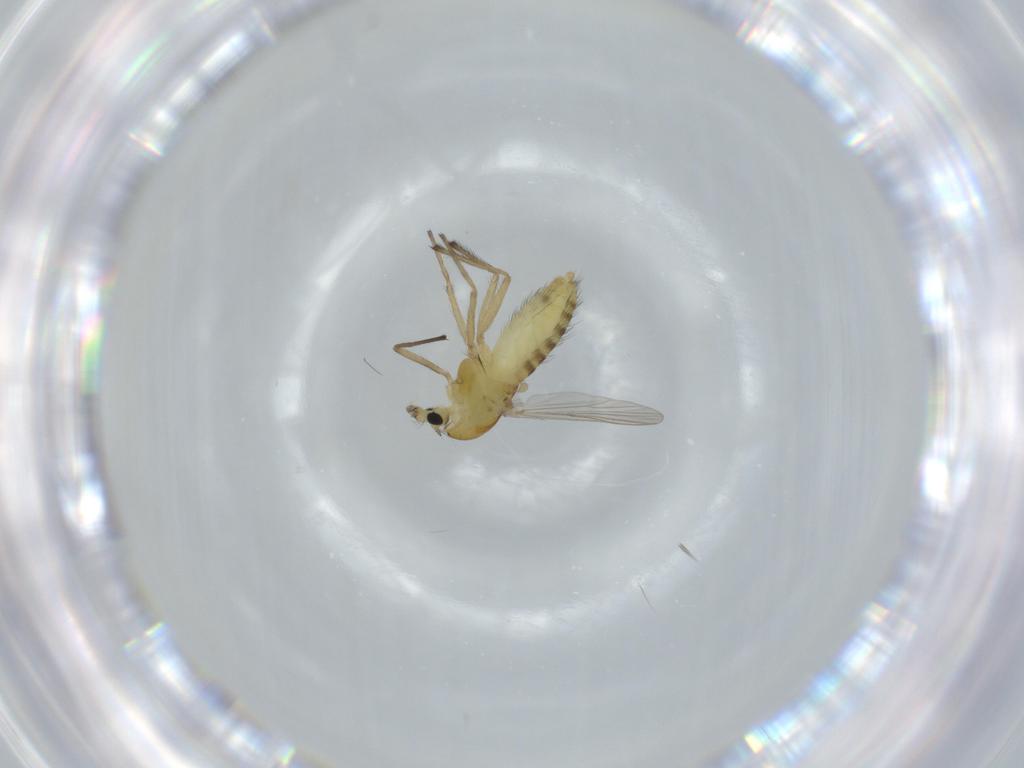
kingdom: Animalia
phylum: Arthropoda
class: Insecta
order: Diptera
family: Chironomidae
